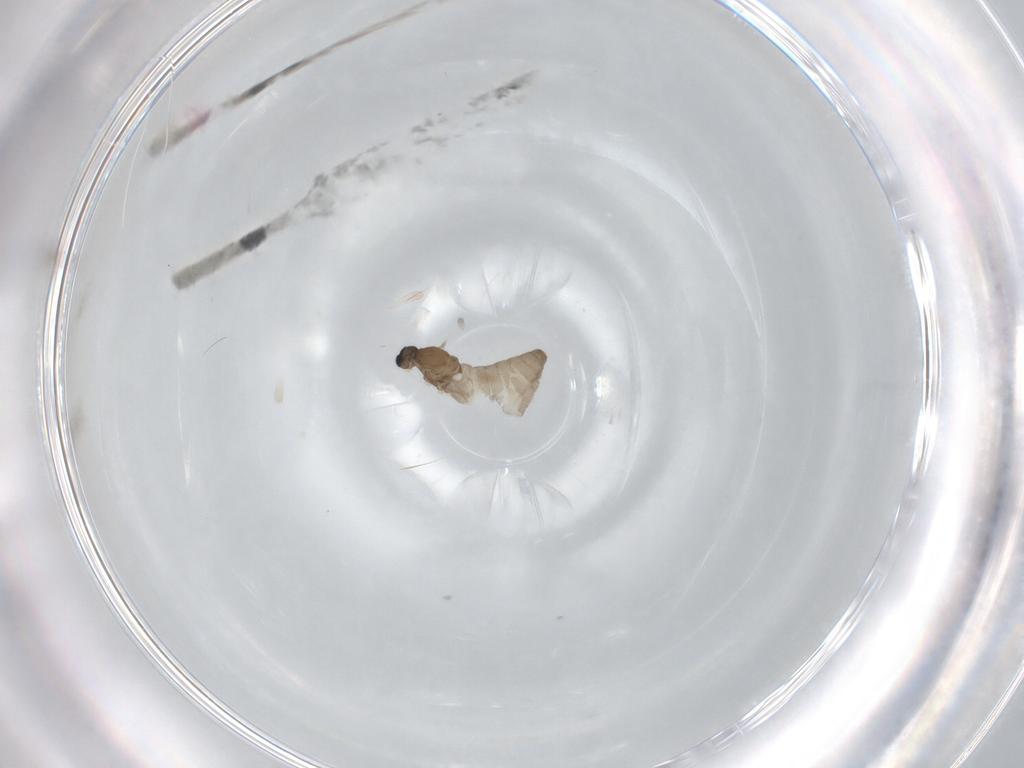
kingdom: Animalia
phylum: Arthropoda
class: Insecta
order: Diptera
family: Cecidomyiidae
